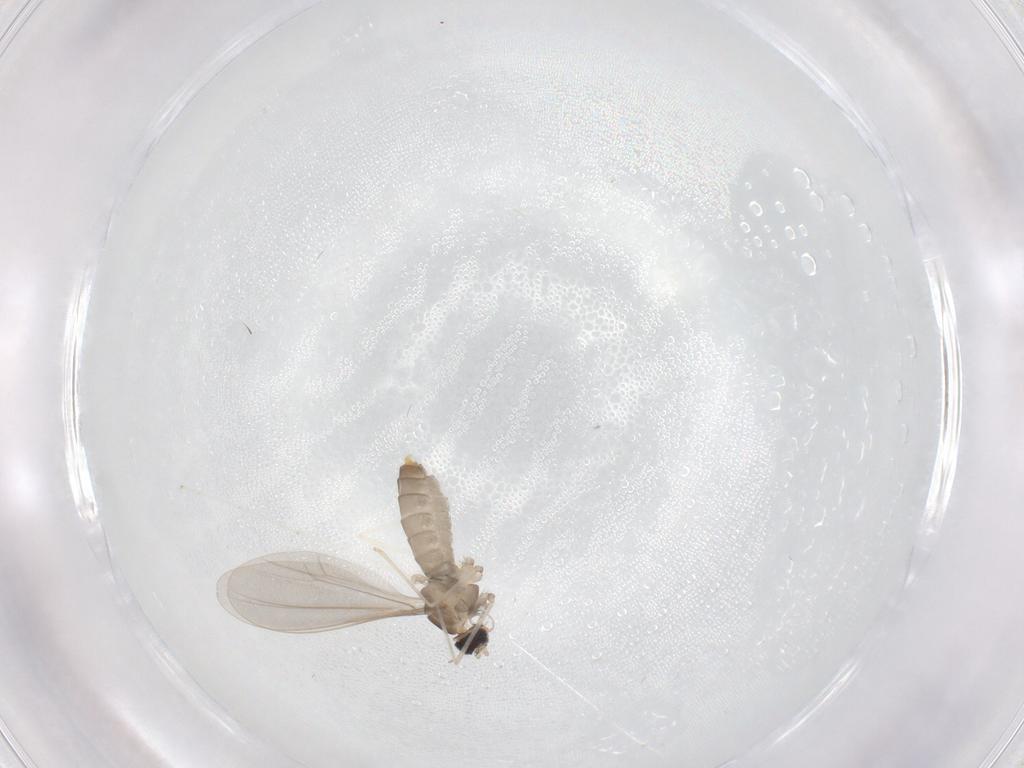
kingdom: Animalia
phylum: Arthropoda
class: Insecta
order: Diptera
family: Cecidomyiidae
